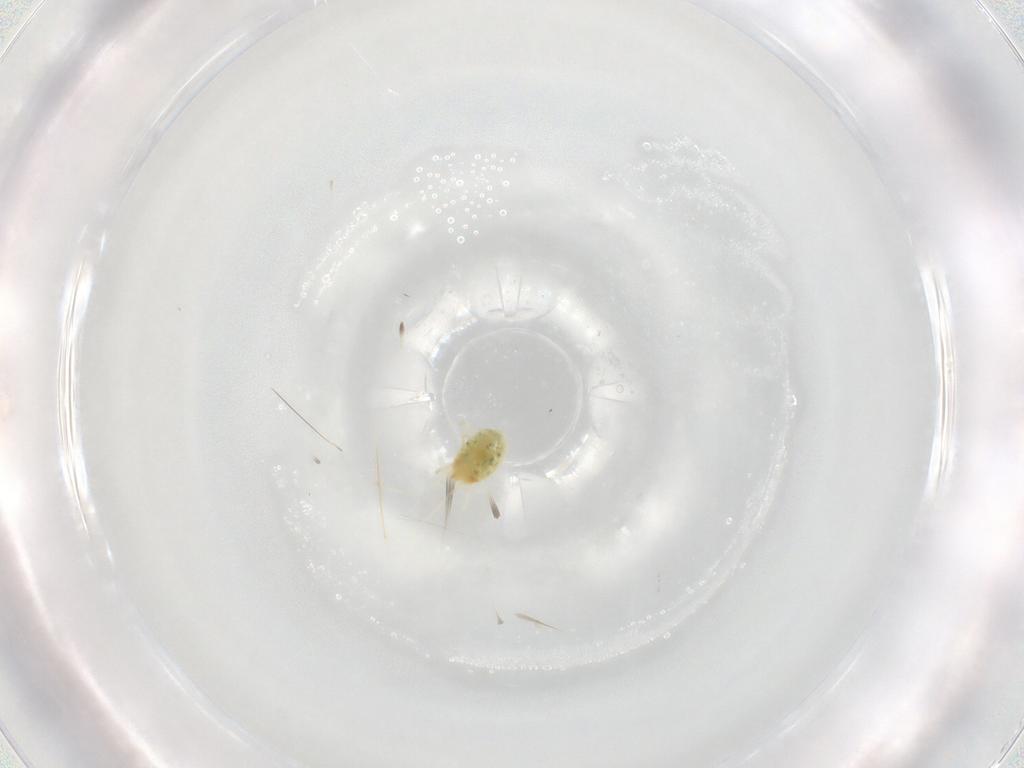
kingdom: Animalia
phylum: Arthropoda
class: Arachnida
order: Trombidiformes
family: Tetranychidae
